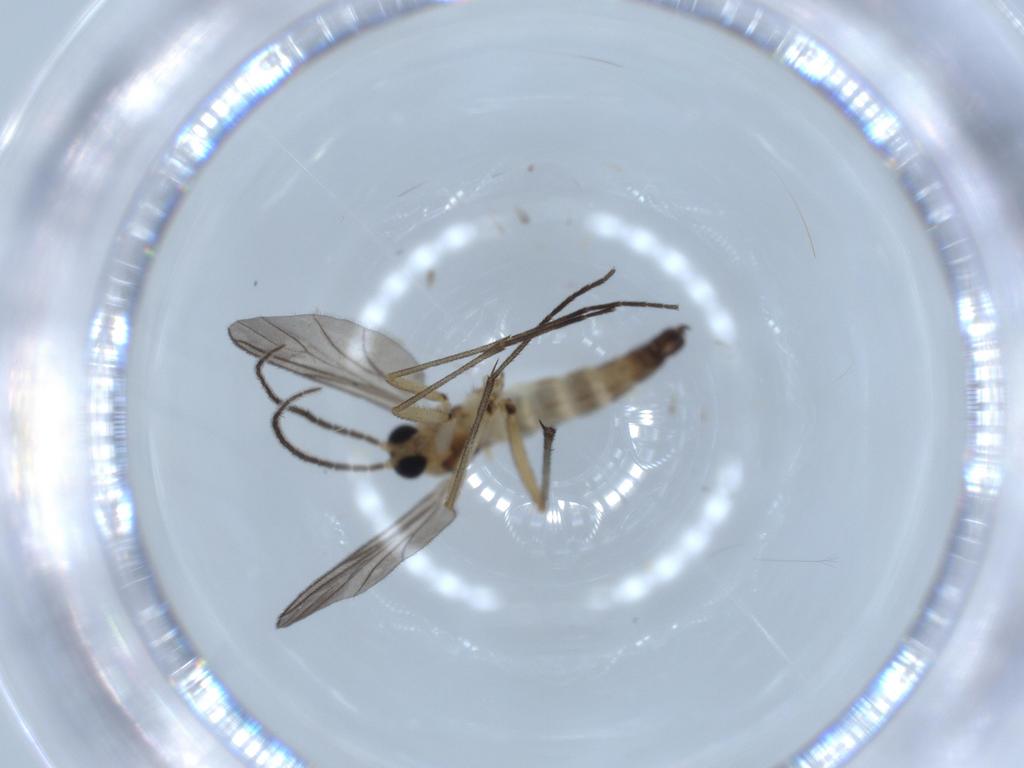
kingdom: Animalia
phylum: Arthropoda
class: Insecta
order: Diptera
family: Sciaridae
